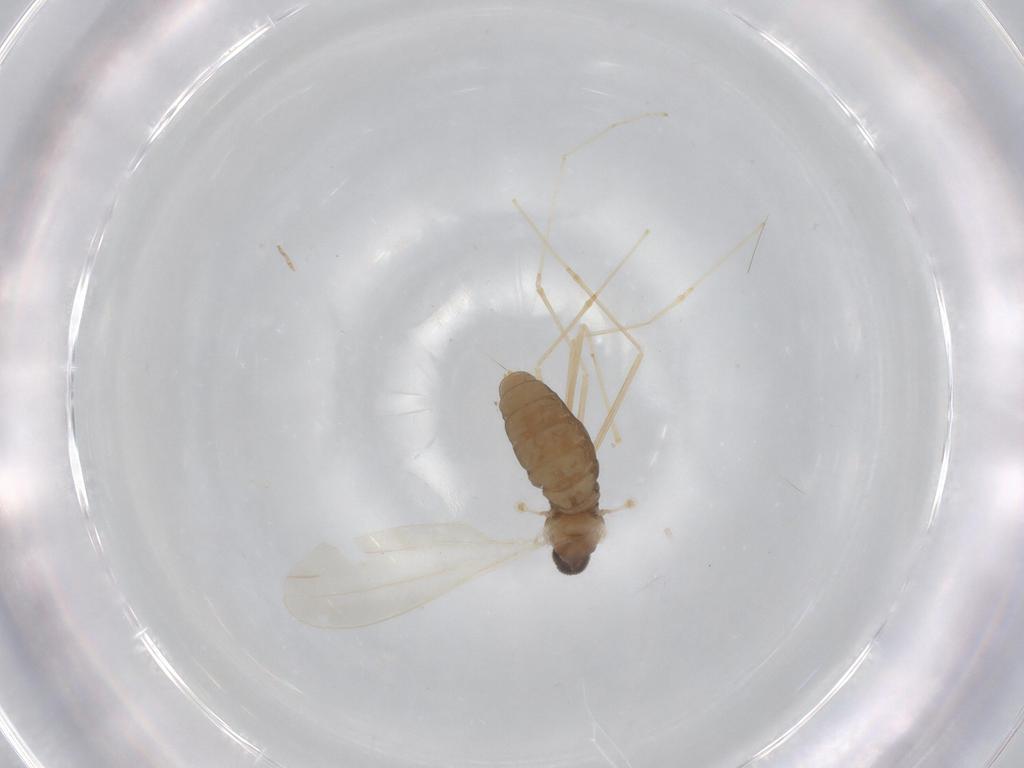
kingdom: Animalia
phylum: Arthropoda
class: Insecta
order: Diptera
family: Cecidomyiidae
